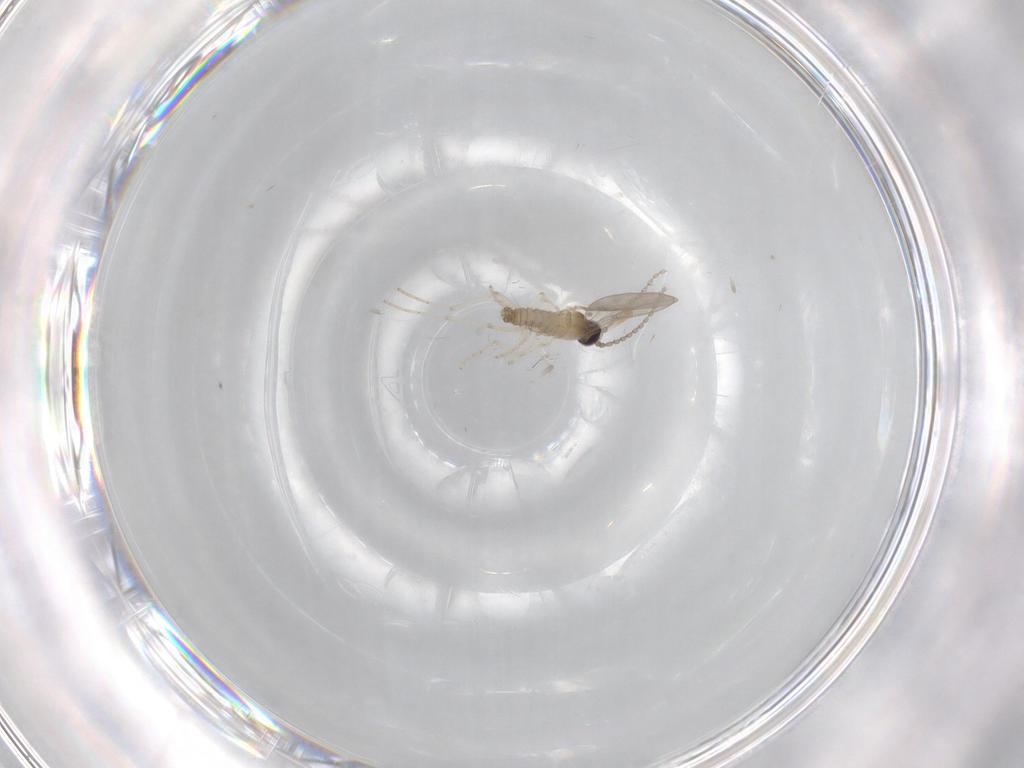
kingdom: Animalia
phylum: Arthropoda
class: Insecta
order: Diptera
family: Cecidomyiidae
